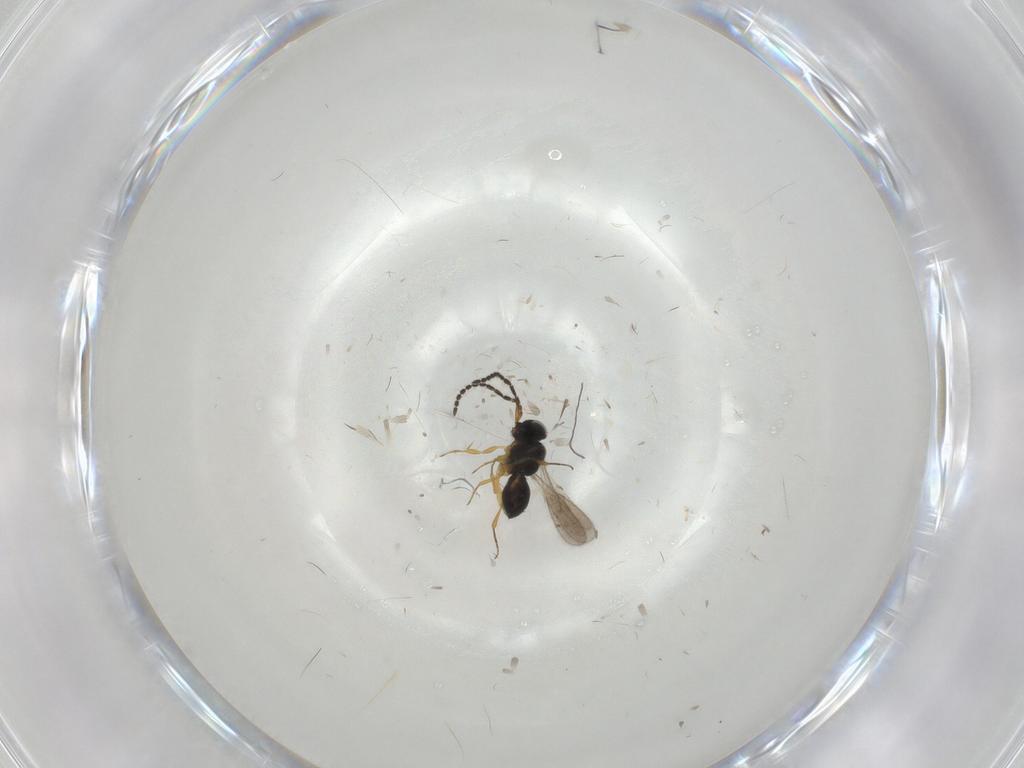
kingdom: Animalia
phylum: Arthropoda
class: Insecta
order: Hymenoptera
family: Scelionidae
